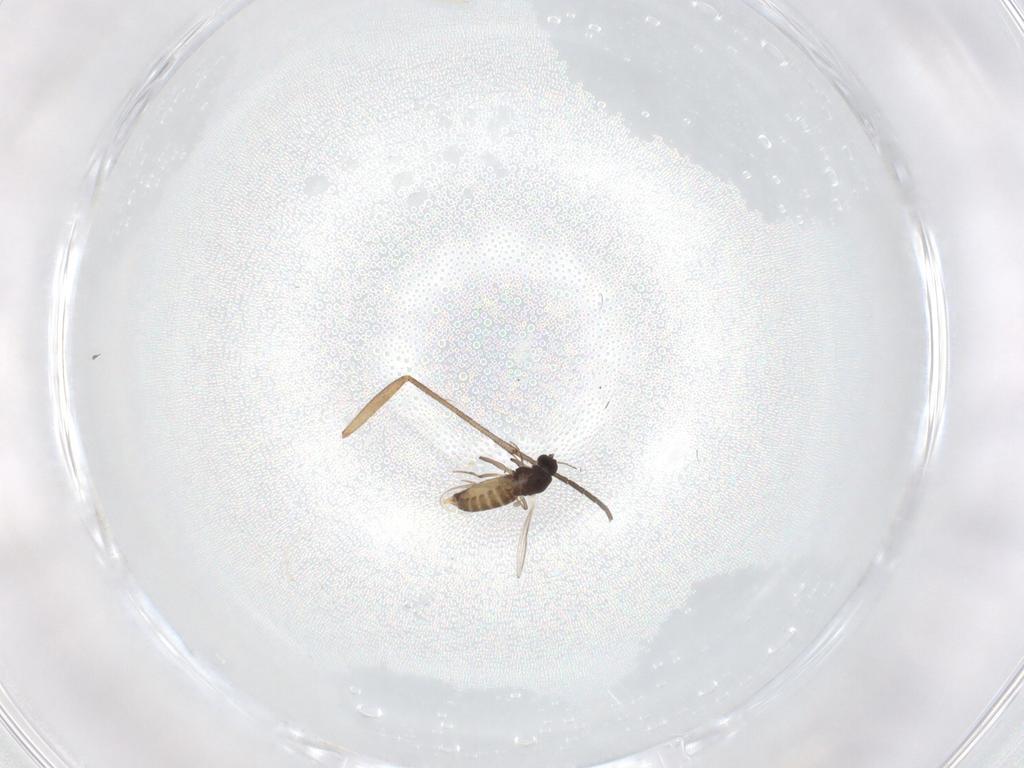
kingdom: Animalia
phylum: Arthropoda
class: Insecta
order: Diptera
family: Chironomidae
